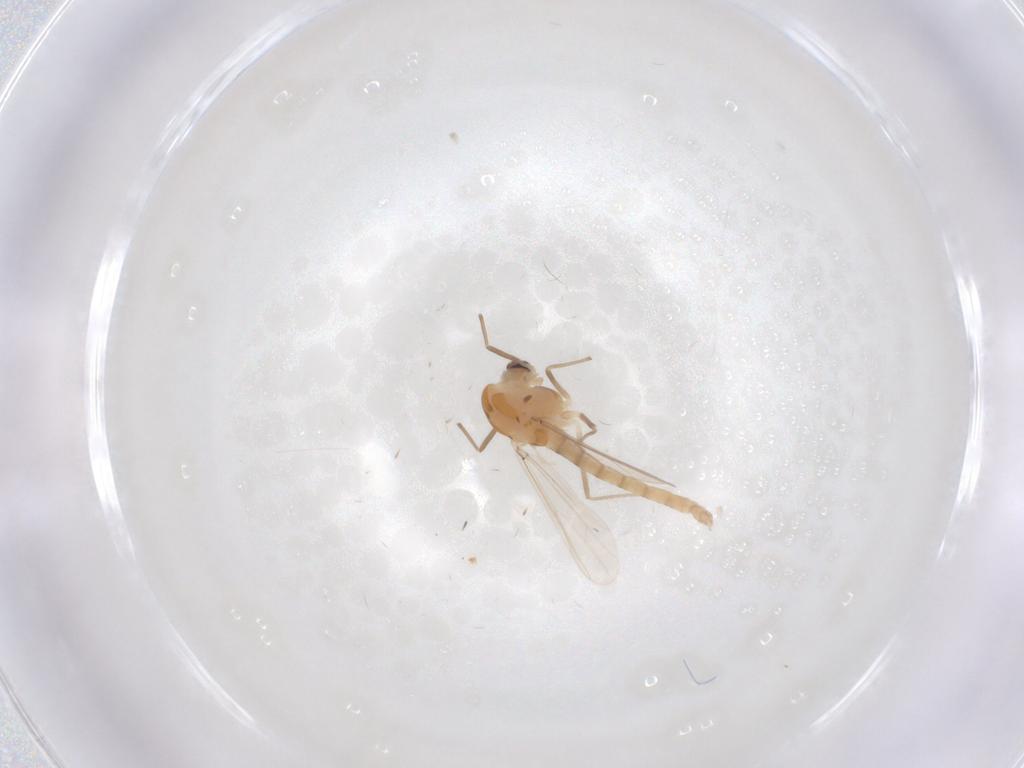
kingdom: Animalia
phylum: Arthropoda
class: Insecta
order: Diptera
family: Chironomidae
